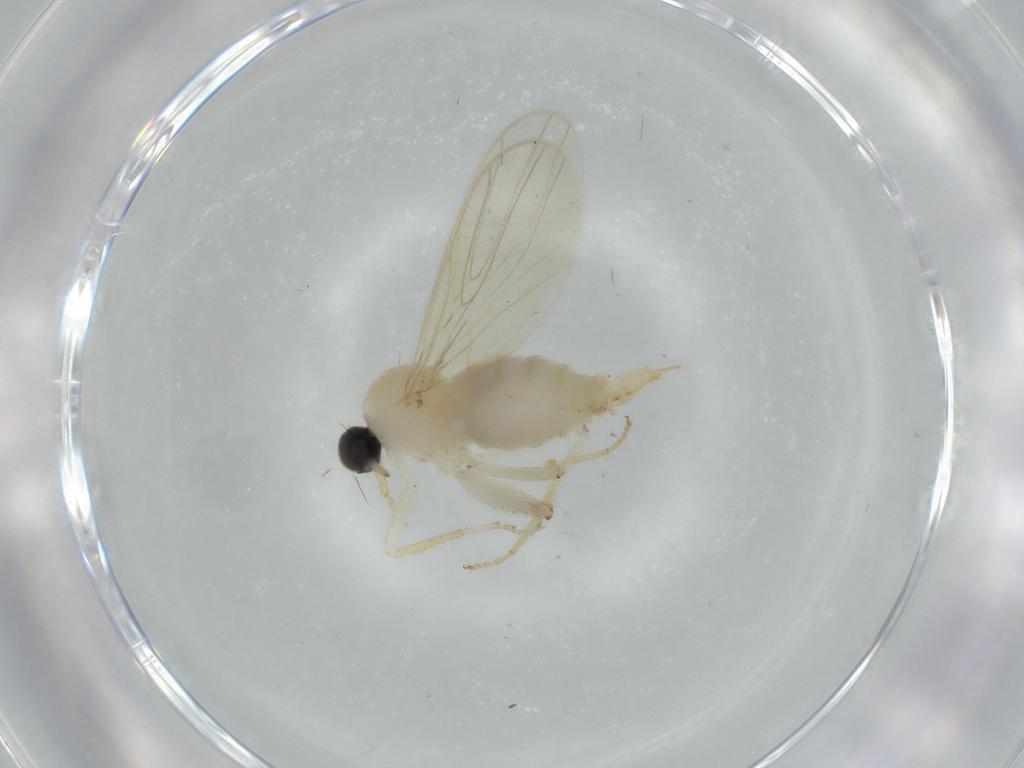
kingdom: Animalia
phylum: Arthropoda
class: Insecta
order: Diptera
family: Hybotidae
